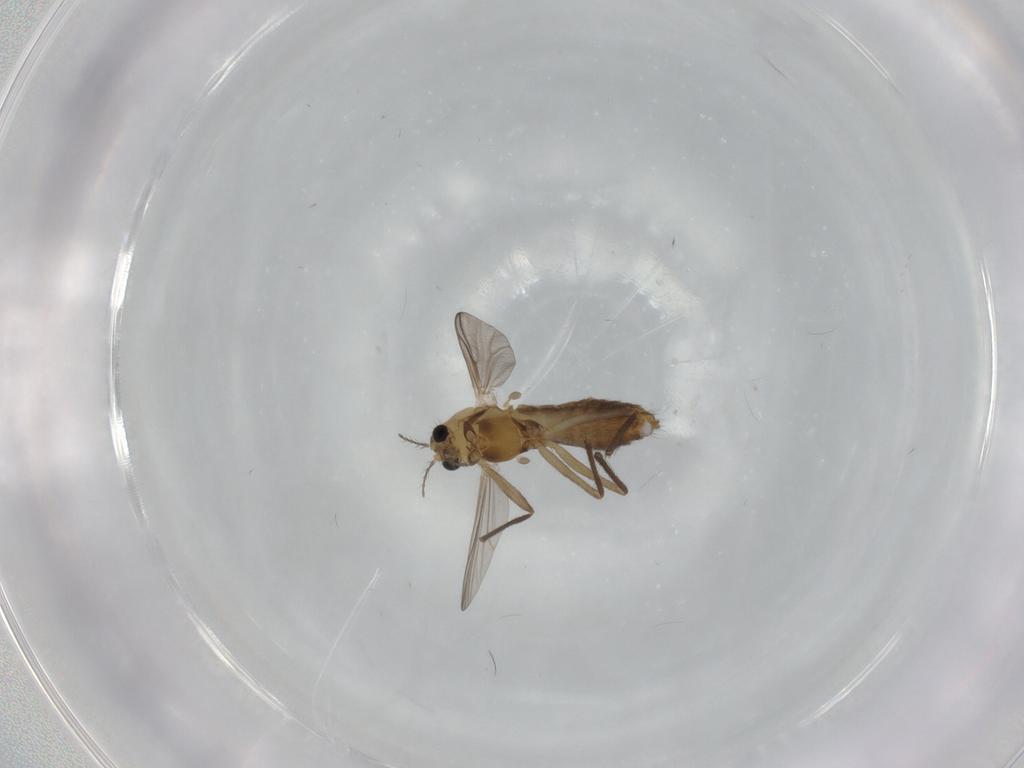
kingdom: Animalia
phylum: Arthropoda
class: Insecta
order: Diptera
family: Chironomidae
